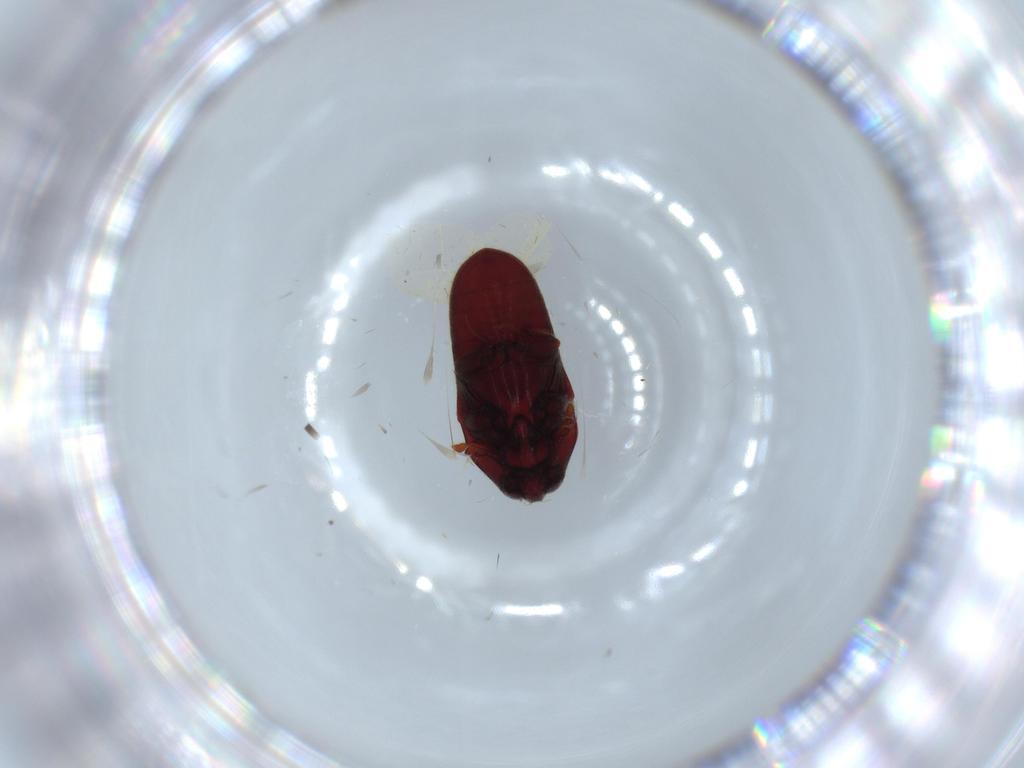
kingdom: Animalia
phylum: Arthropoda
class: Insecta
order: Coleoptera
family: Throscidae
